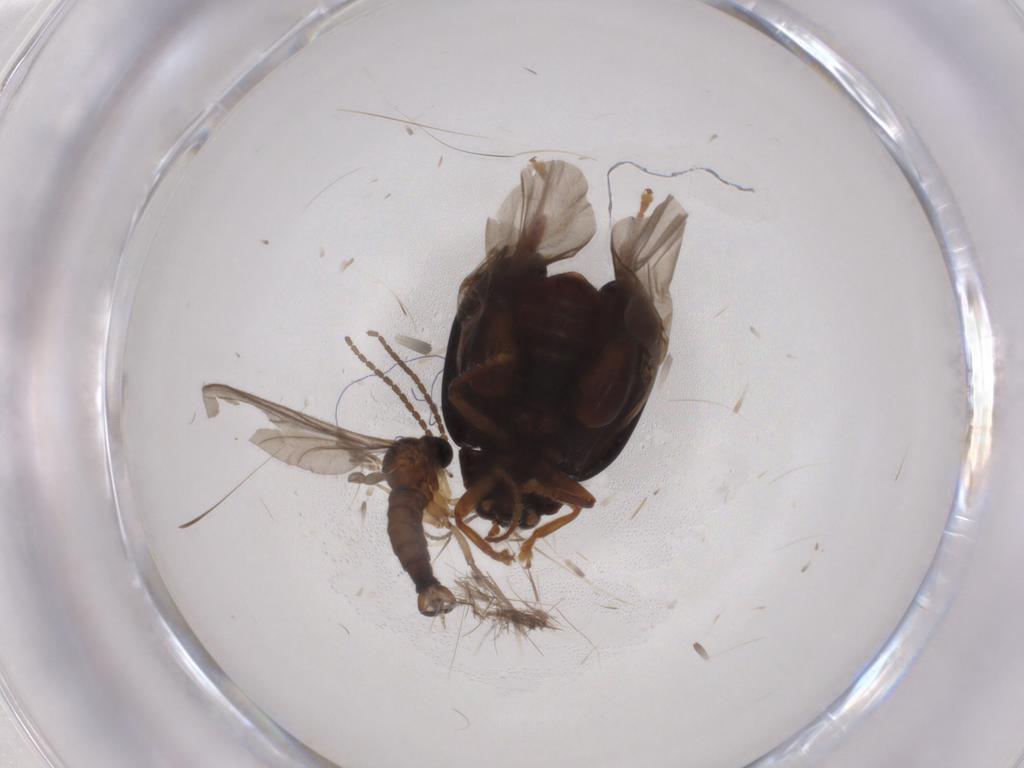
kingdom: Animalia
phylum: Arthropoda
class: Insecta
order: Diptera
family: Sciaridae
